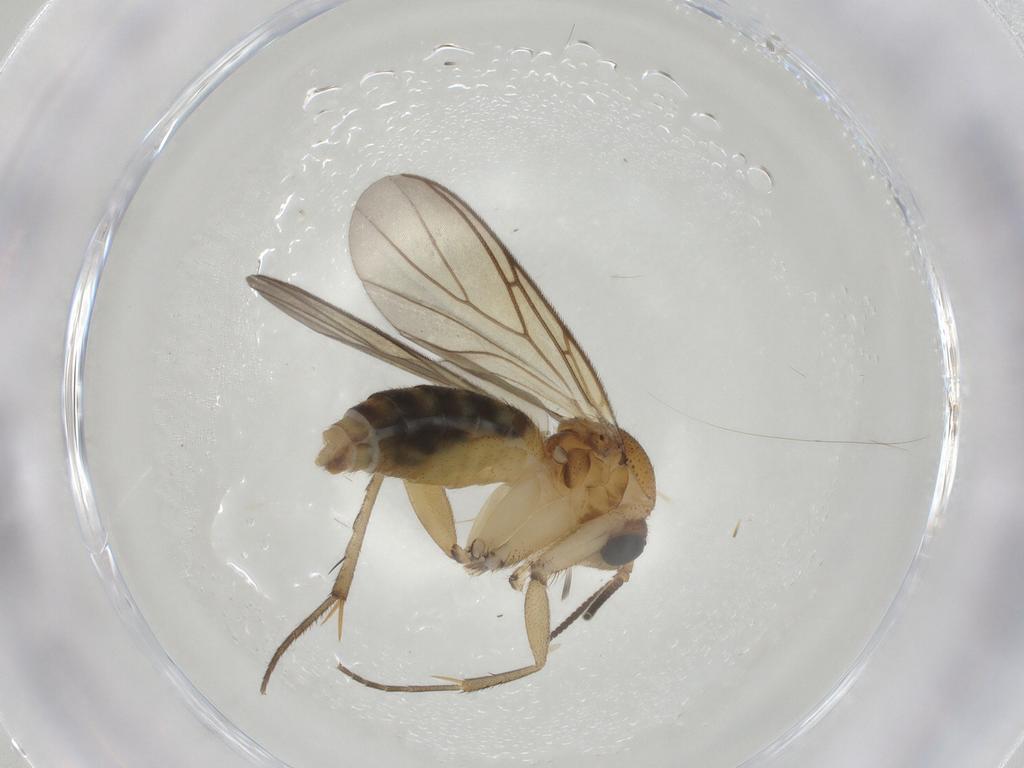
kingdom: Animalia
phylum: Arthropoda
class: Insecta
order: Diptera
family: Mycetophilidae
